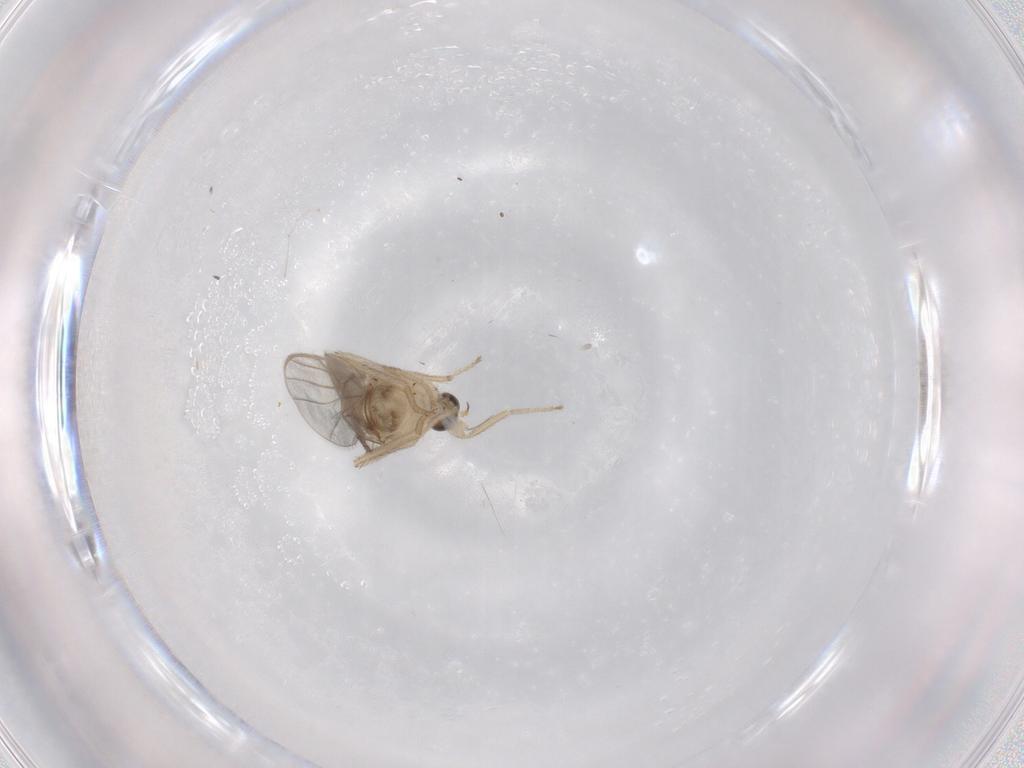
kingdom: Animalia
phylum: Arthropoda
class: Insecta
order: Diptera
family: Hybotidae
